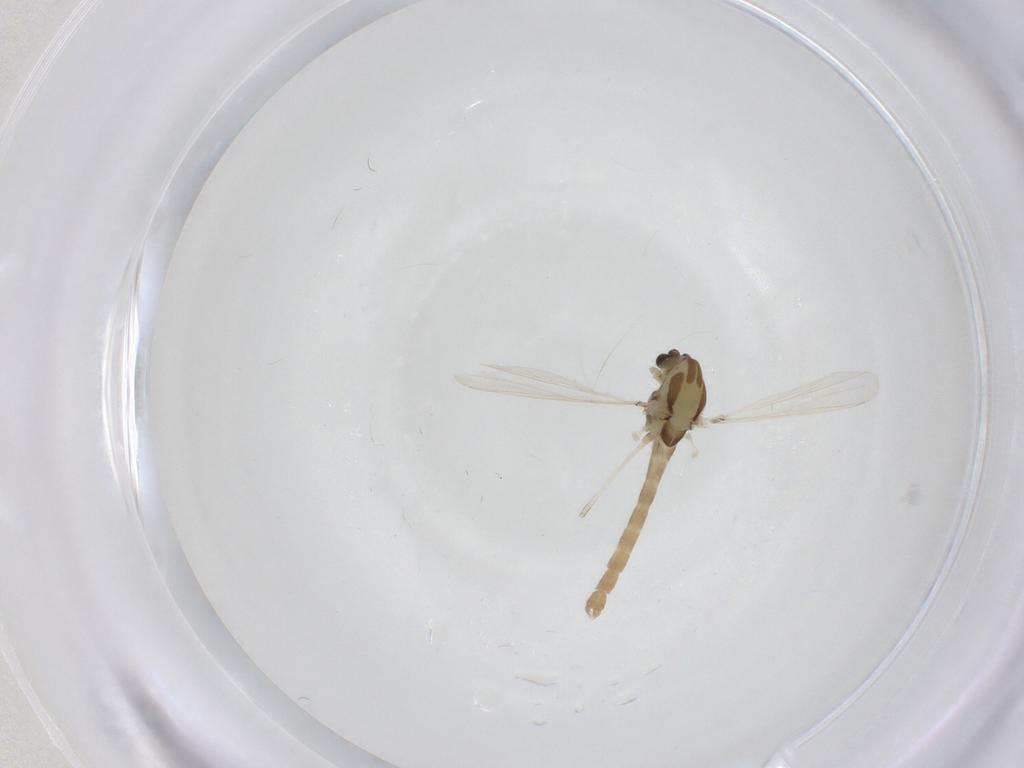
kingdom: Animalia
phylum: Arthropoda
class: Insecta
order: Diptera
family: Chironomidae
